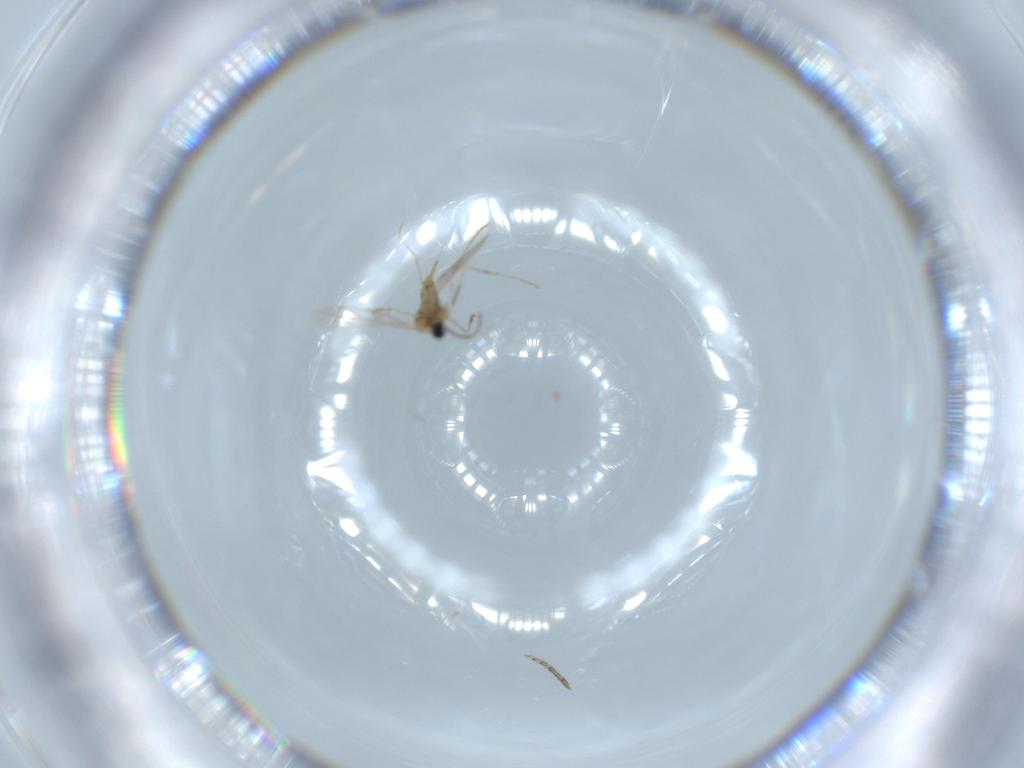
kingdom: Animalia
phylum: Arthropoda
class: Insecta
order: Diptera
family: Cecidomyiidae
